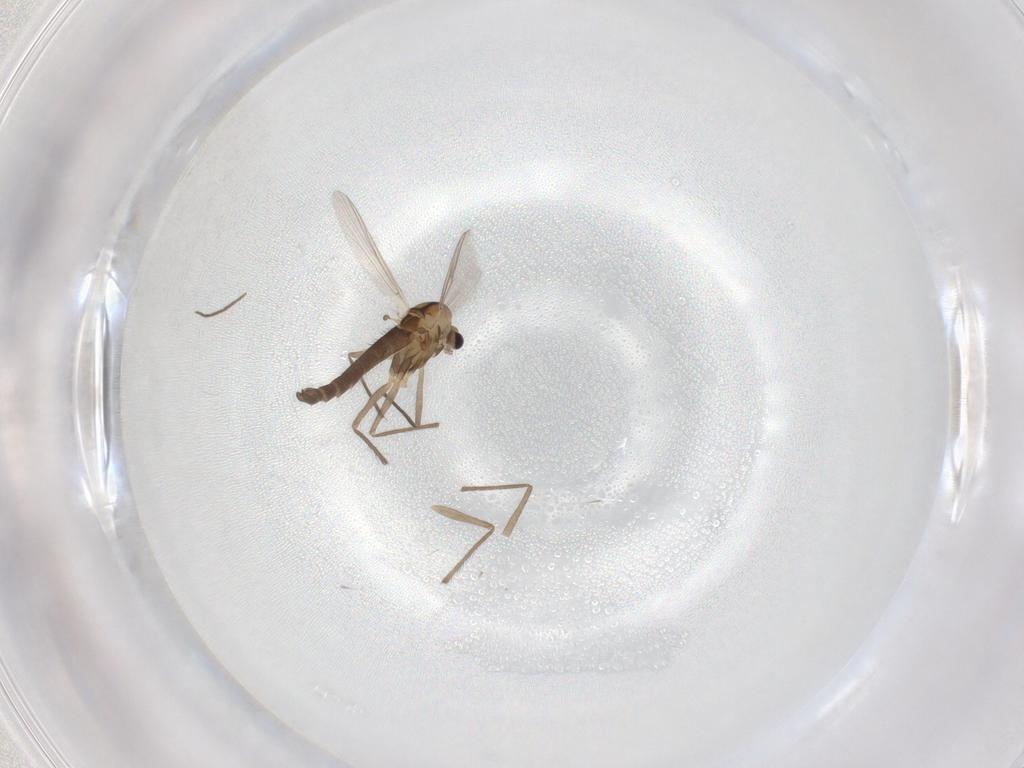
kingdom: Animalia
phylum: Arthropoda
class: Insecta
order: Diptera
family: Chironomidae
